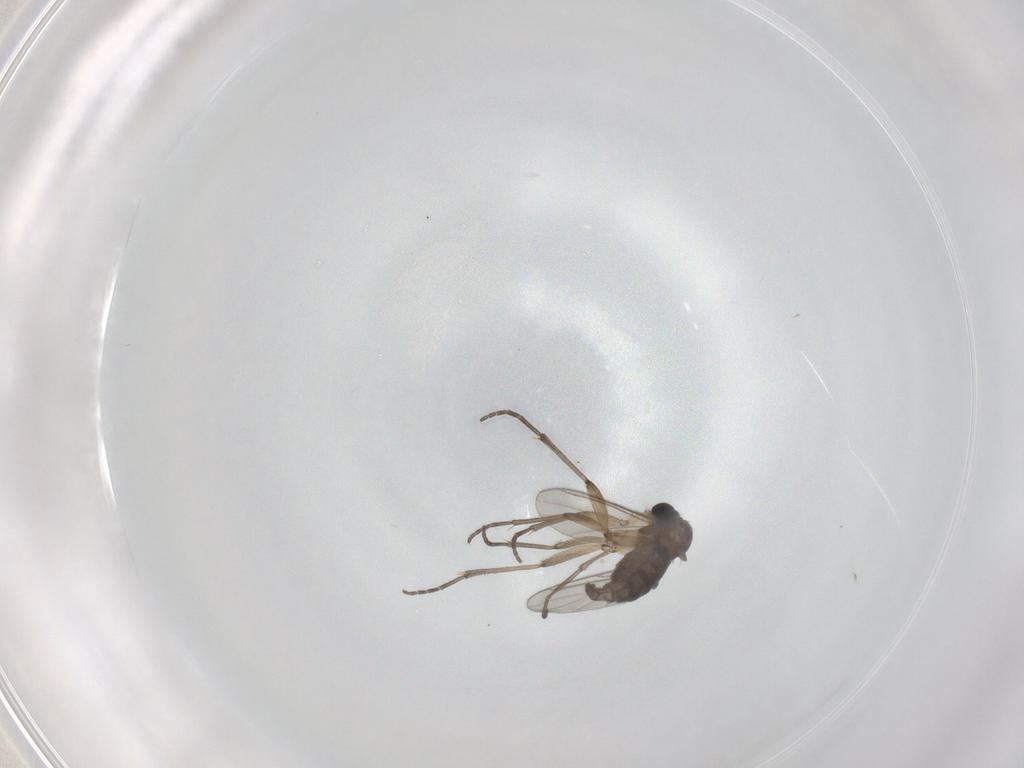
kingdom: Animalia
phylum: Arthropoda
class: Insecta
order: Diptera
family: Sciaridae
